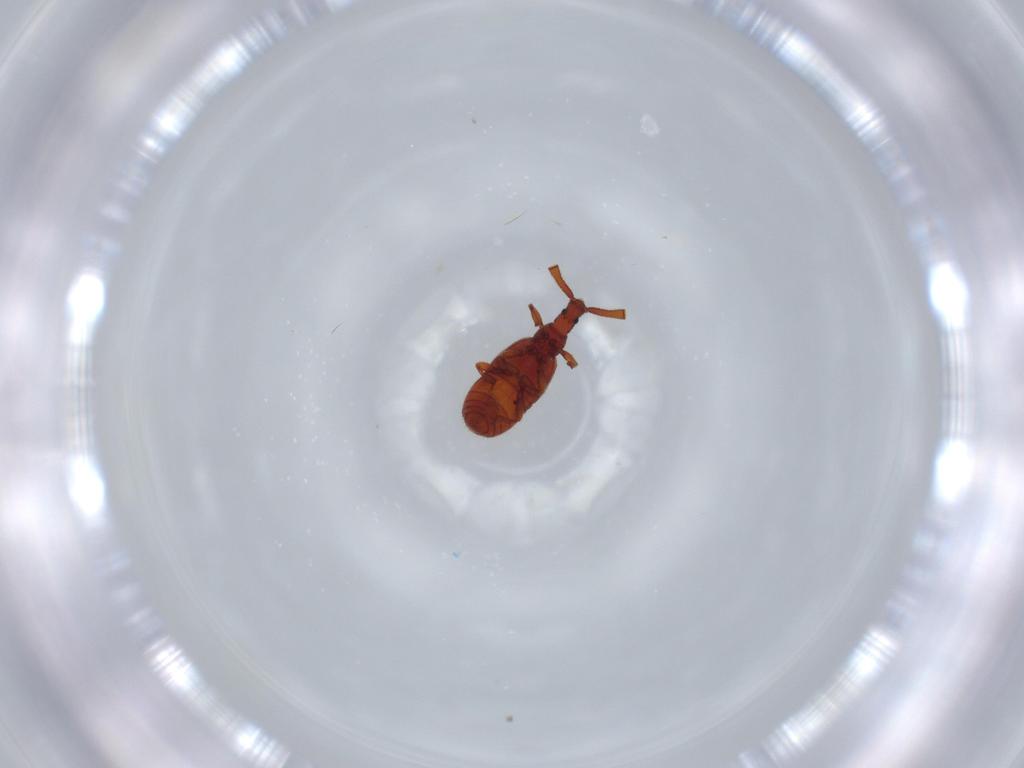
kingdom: Animalia
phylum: Arthropoda
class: Insecta
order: Coleoptera
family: Staphylinidae
